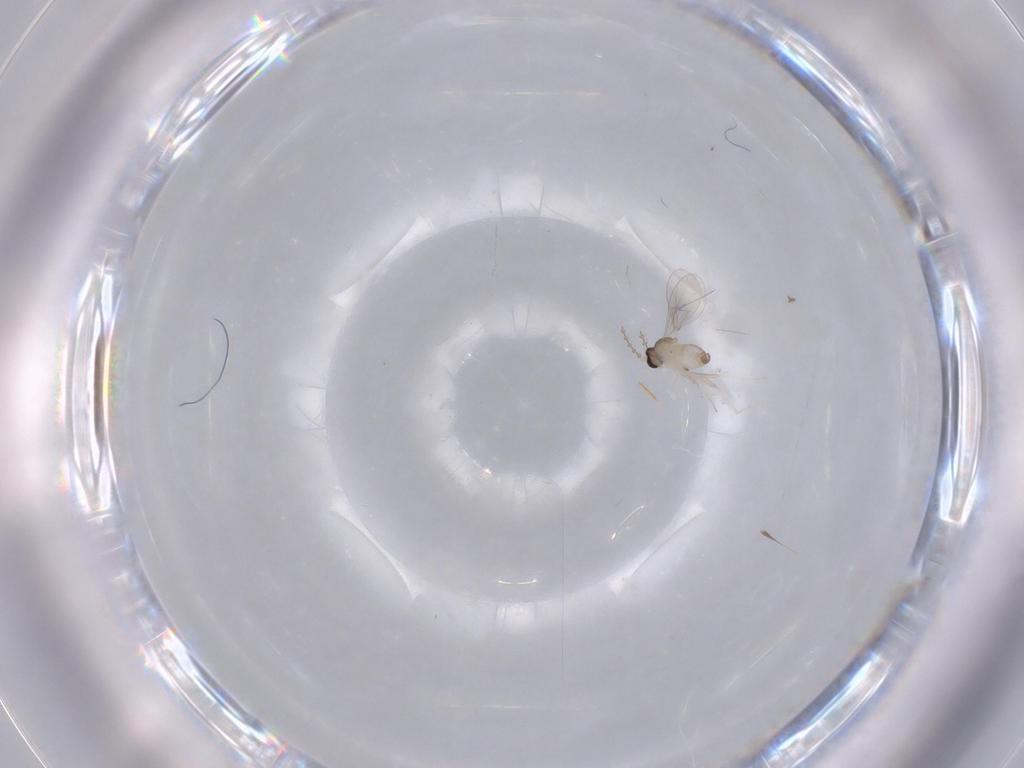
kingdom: Animalia
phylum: Arthropoda
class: Insecta
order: Diptera
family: Cecidomyiidae
